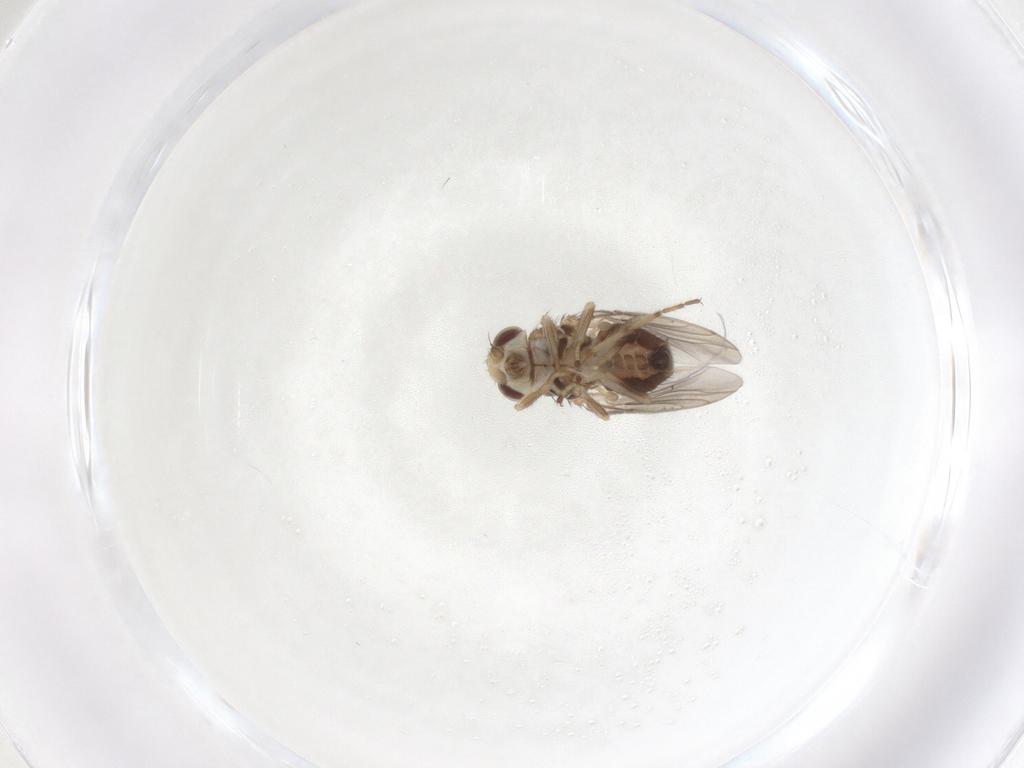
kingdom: Animalia
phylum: Arthropoda
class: Insecta
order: Diptera
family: Chloropidae
